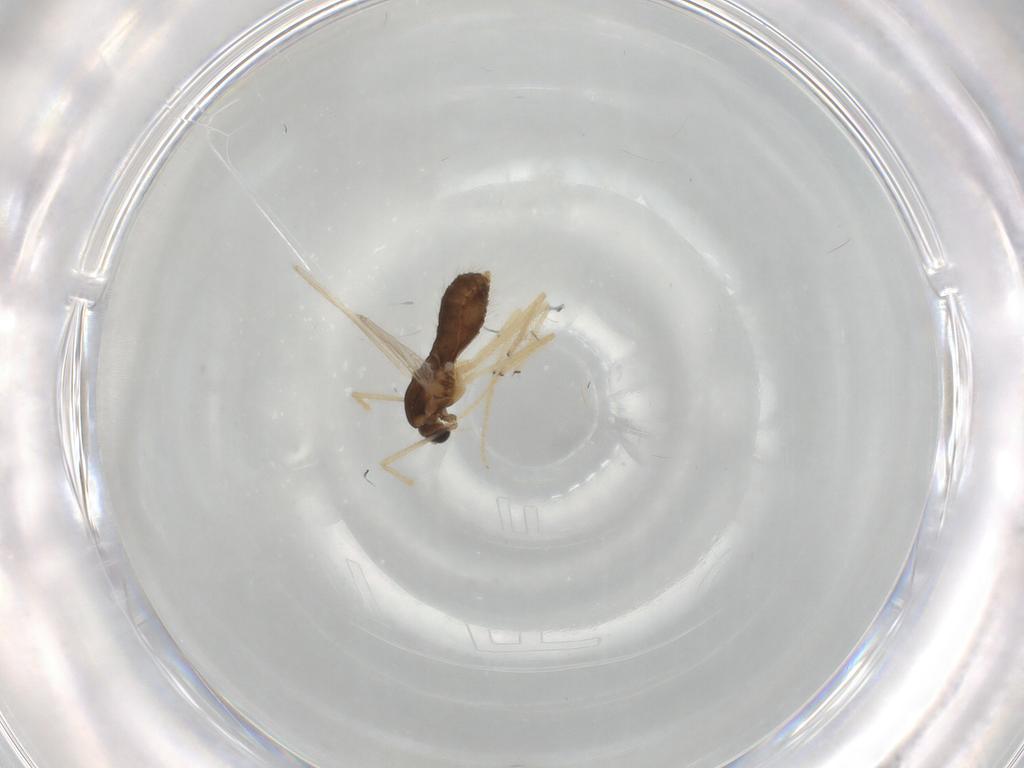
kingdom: Animalia
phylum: Arthropoda
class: Insecta
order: Diptera
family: Chironomidae
